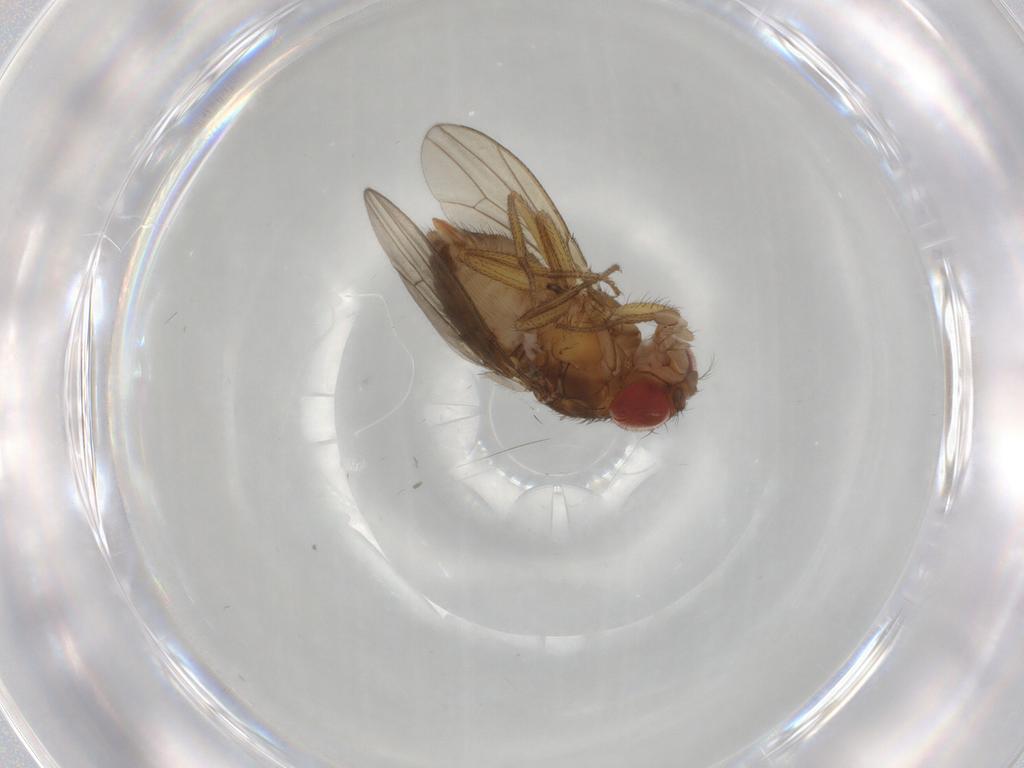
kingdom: Animalia
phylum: Arthropoda
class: Insecta
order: Diptera
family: Drosophilidae
